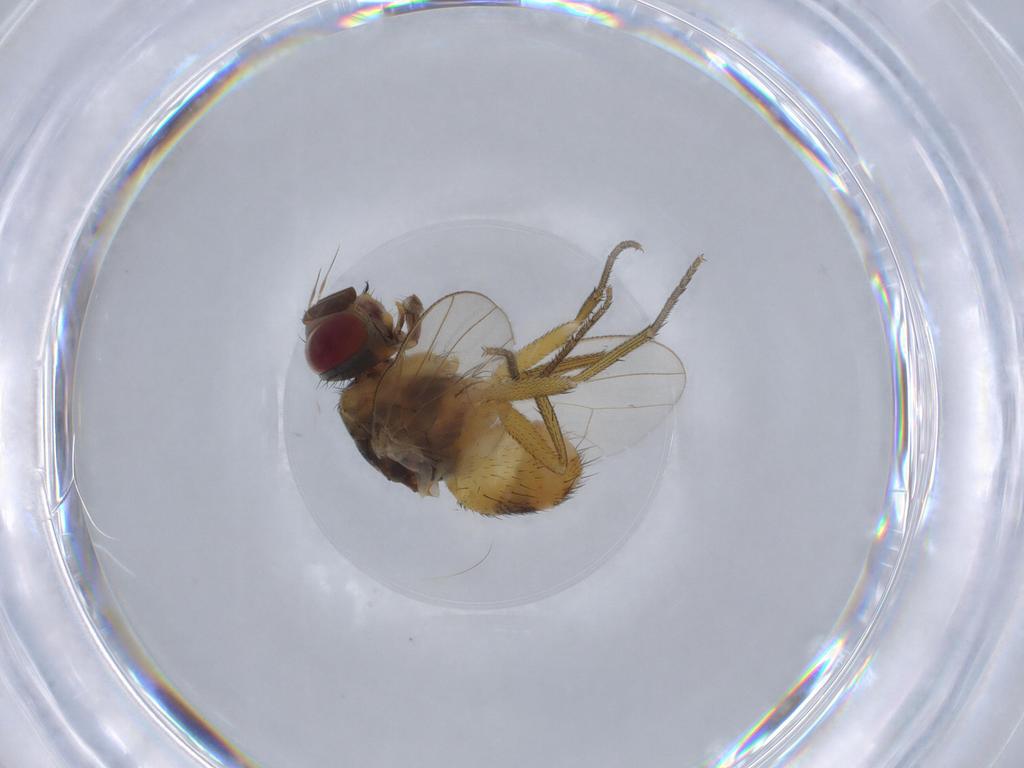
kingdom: Animalia
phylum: Arthropoda
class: Insecta
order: Diptera
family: Muscidae
